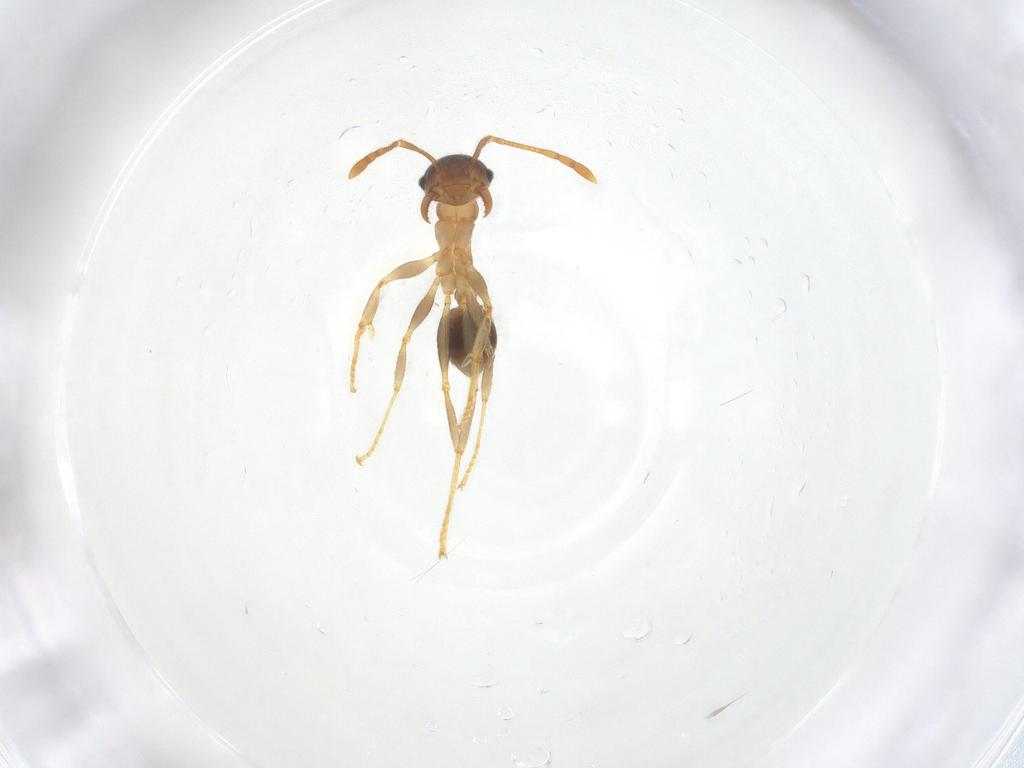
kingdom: Animalia
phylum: Arthropoda
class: Insecta
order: Hymenoptera
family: Formicidae
